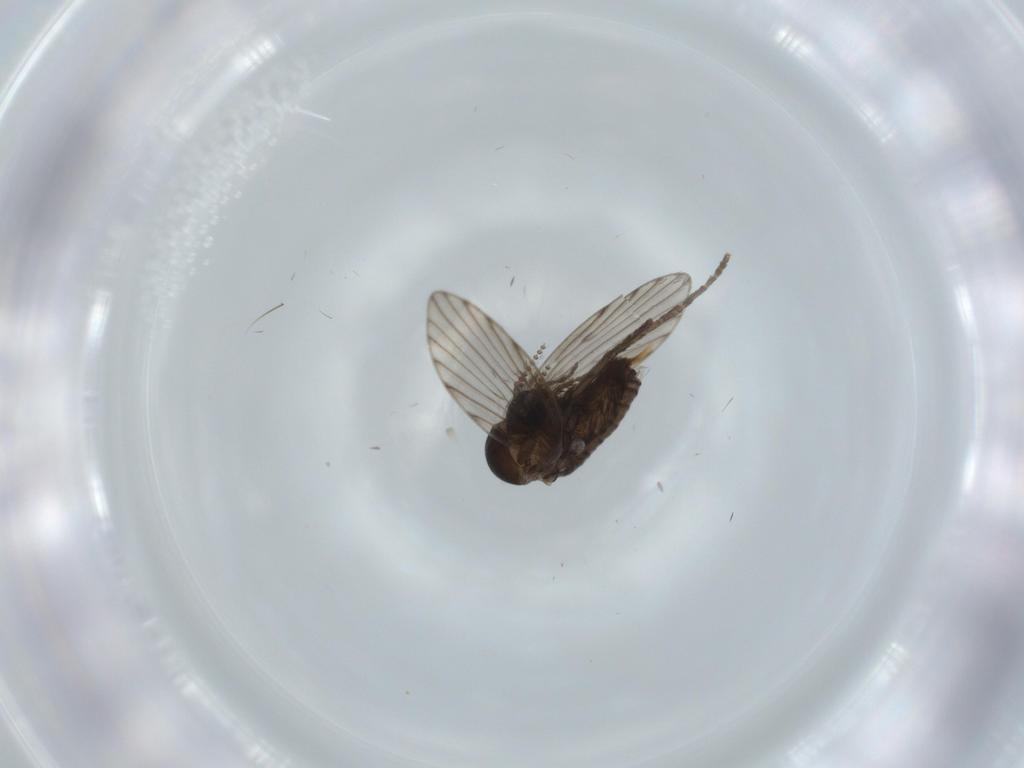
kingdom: Animalia
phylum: Arthropoda
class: Insecta
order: Diptera
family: Psychodidae
